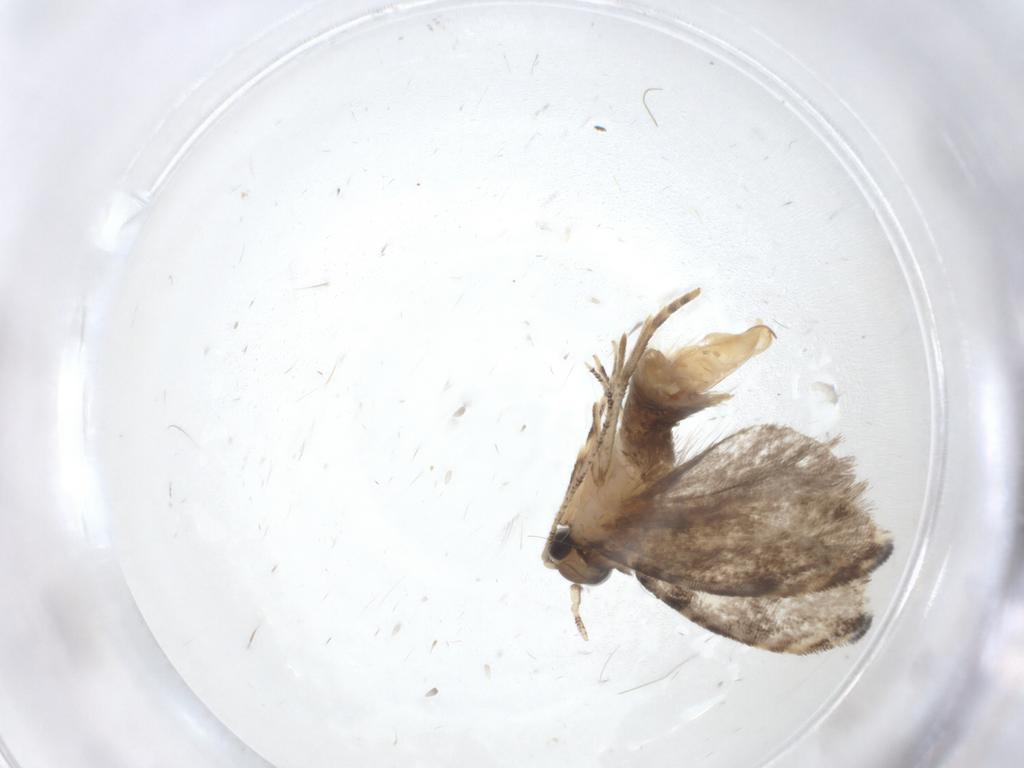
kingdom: Animalia
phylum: Arthropoda
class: Insecta
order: Lepidoptera
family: Tineidae
